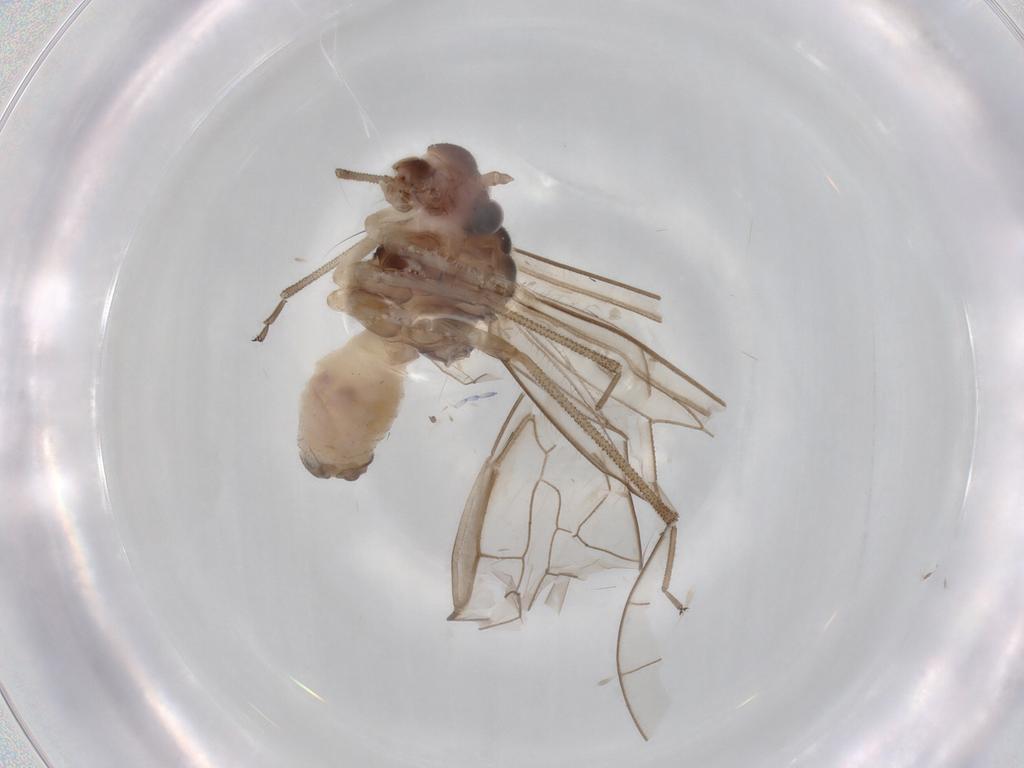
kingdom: Animalia
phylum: Arthropoda
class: Insecta
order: Psocodea
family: Stenopsocidae
